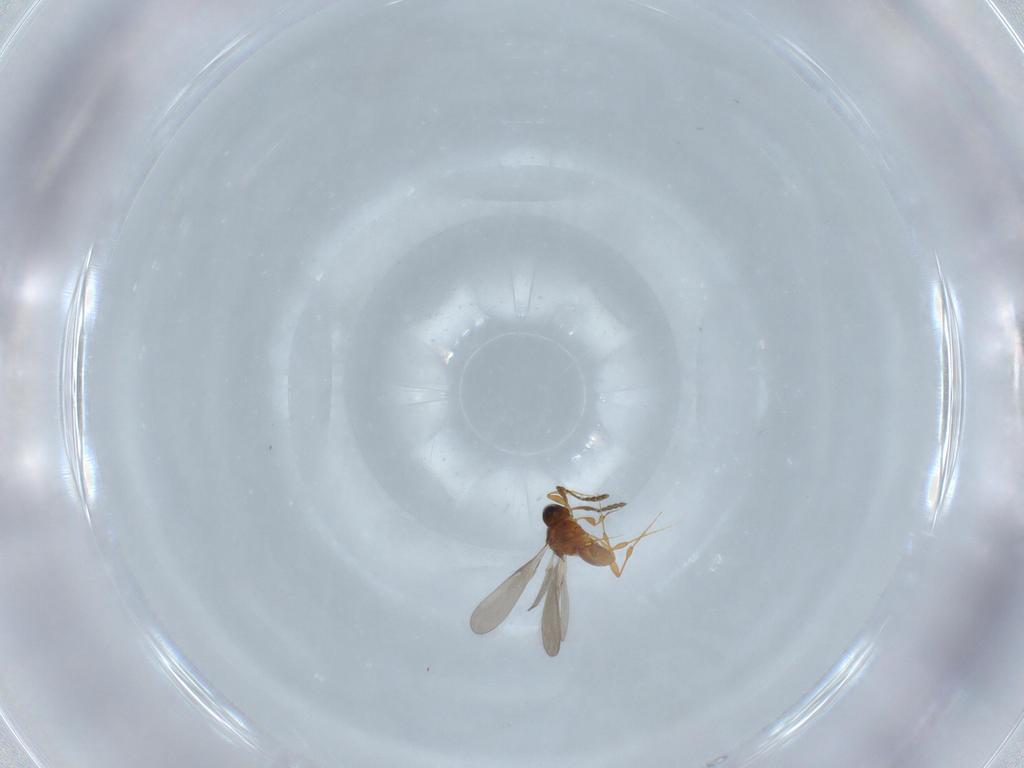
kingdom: Animalia
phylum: Arthropoda
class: Insecta
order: Hymenoptera
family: Platygastridae
